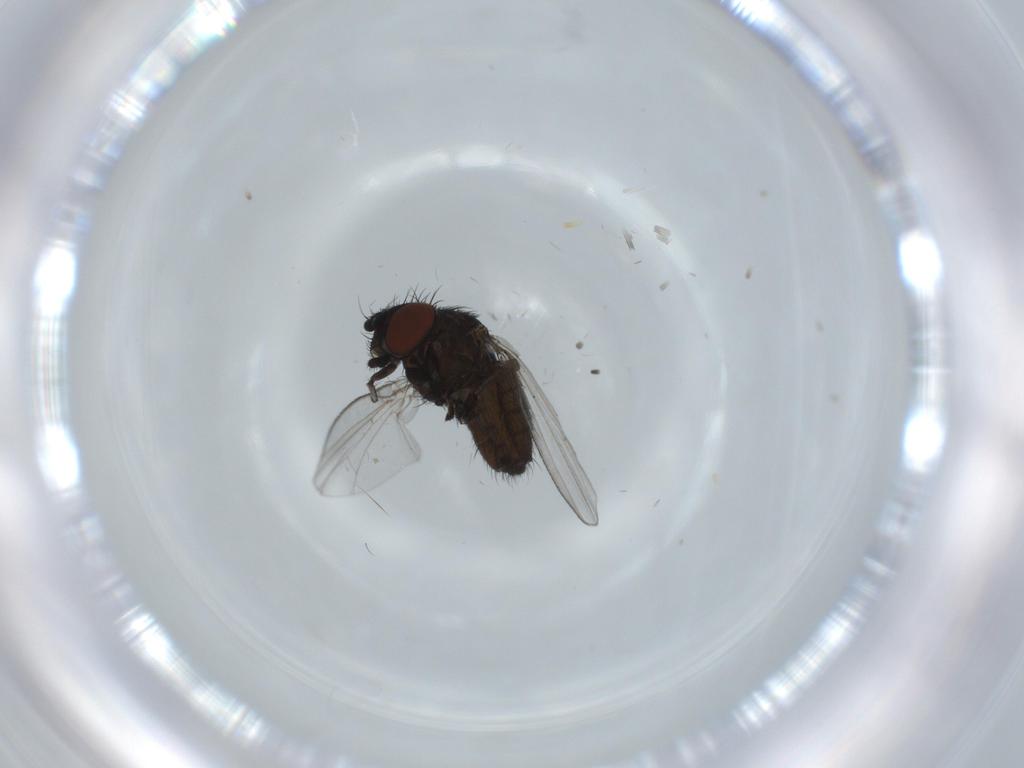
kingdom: Animalia
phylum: Arthropoda
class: Insecta
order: Diptera
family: Milichiidae
